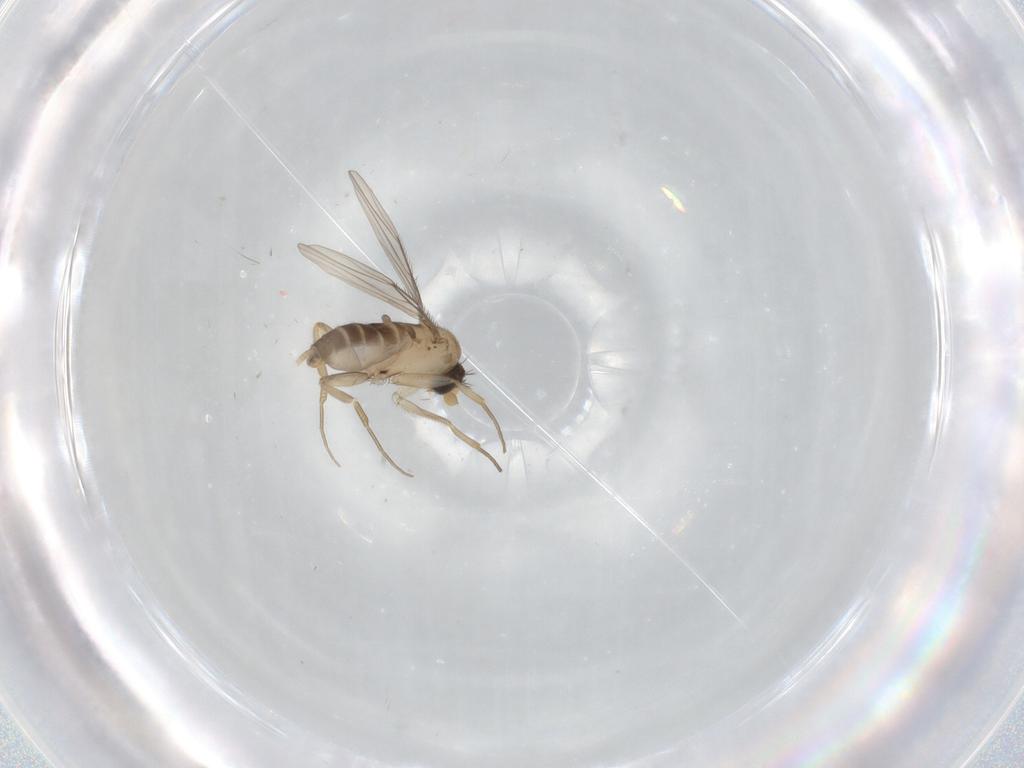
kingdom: Animalia
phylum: Arthropoda
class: Insecta
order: Diptera
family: Phoridae
